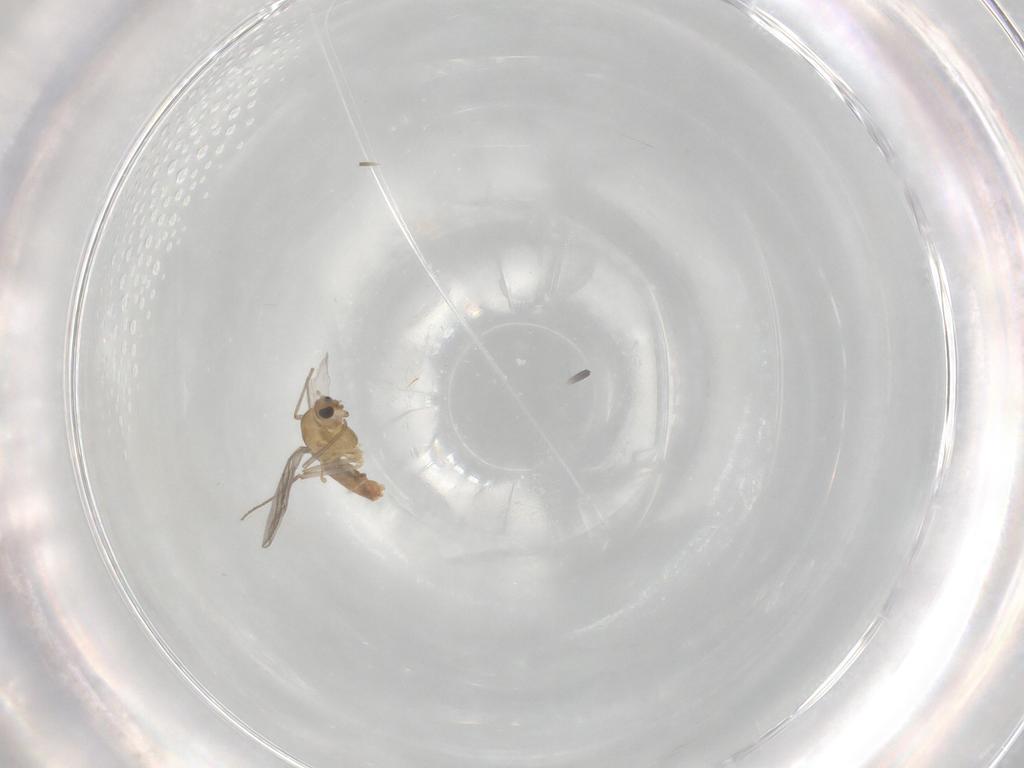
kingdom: Animalia
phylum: Arthropoda
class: Insecta
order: Diptera
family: Chironomidae
